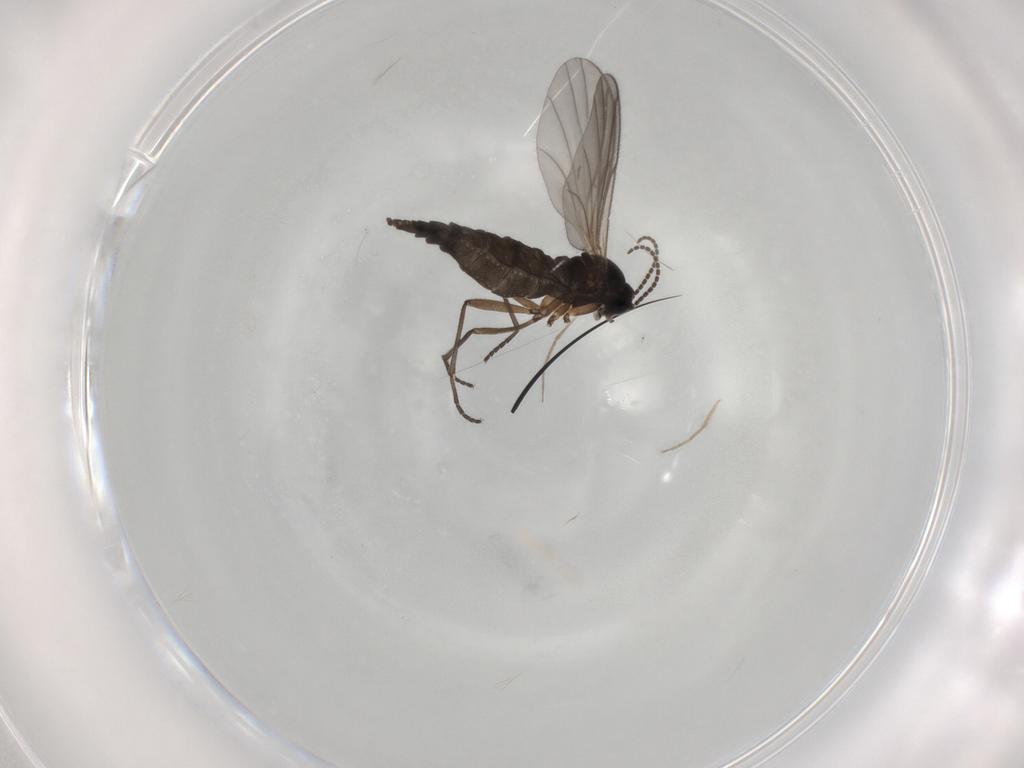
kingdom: Animalia
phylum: Arthropoda
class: Insecta
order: Diptera
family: Sciaridae
